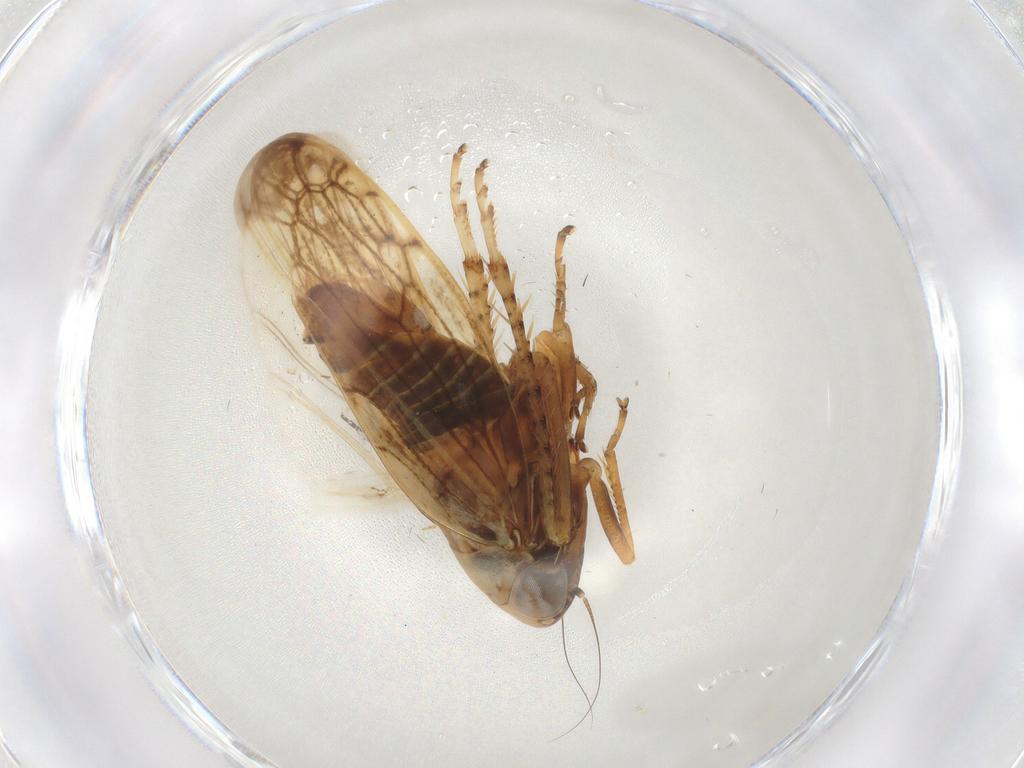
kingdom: Animalia
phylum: Arthropoda
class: Insecta
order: Hemiptera
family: Cicadellidae
